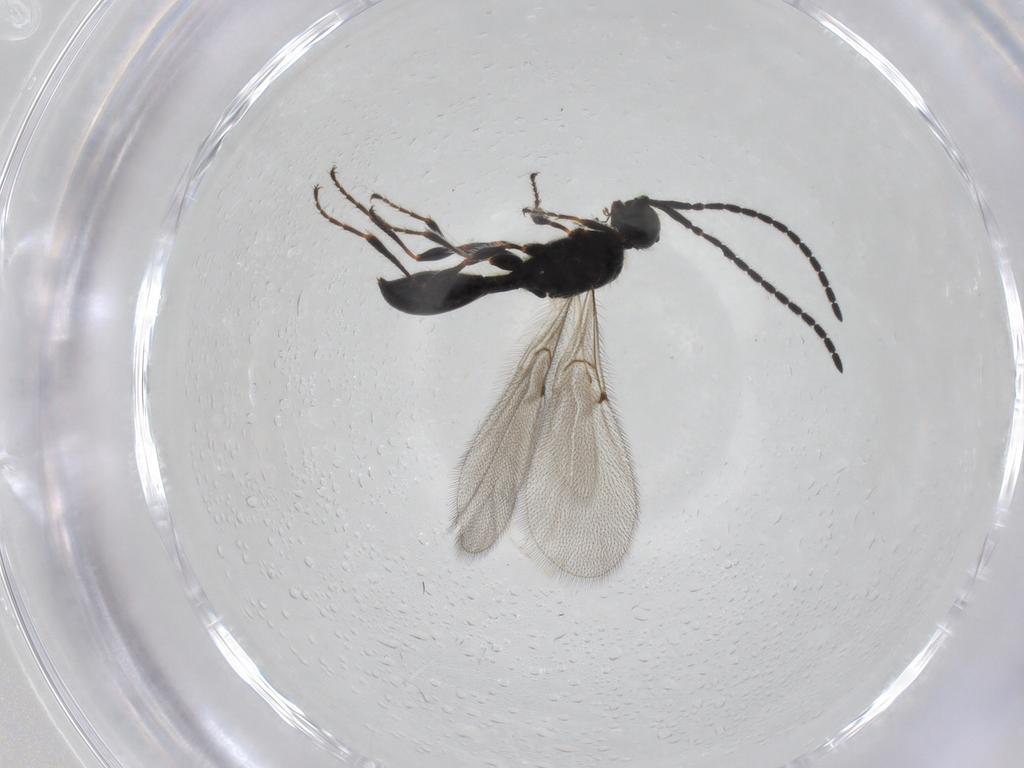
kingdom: Animalia
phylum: Arthropoda
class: Insecta
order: Hymenoptera
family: Diapriidae
